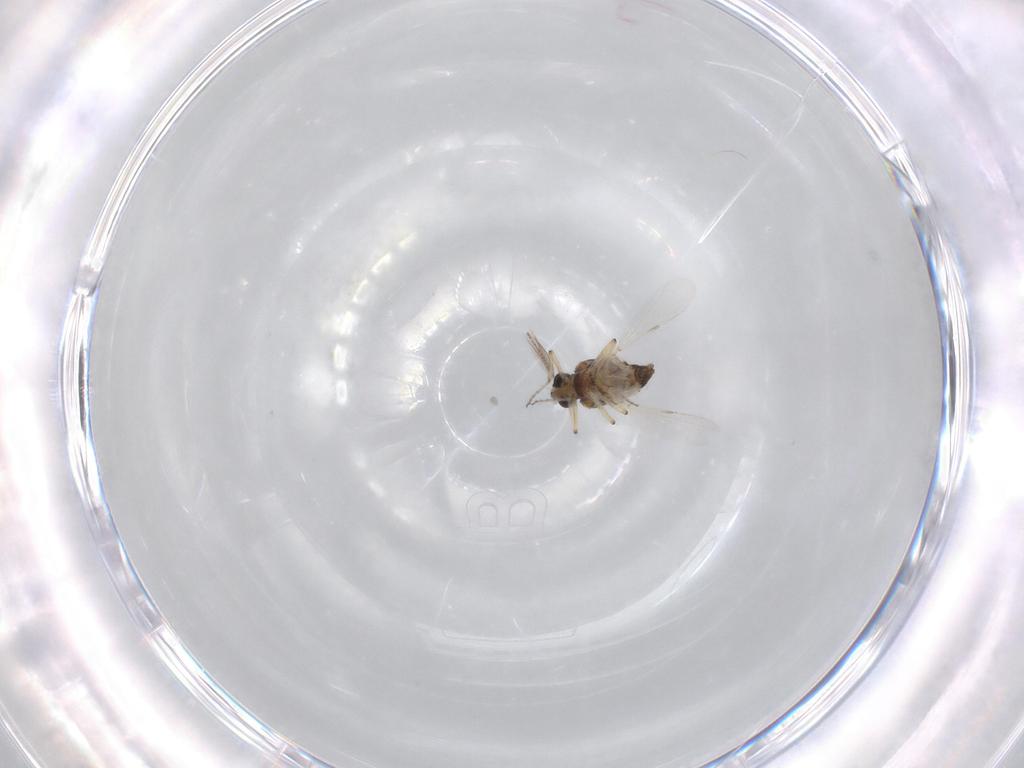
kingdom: Animalia
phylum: Arthropoda
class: Insecta
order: Diptera
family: Ceratopogonidae
